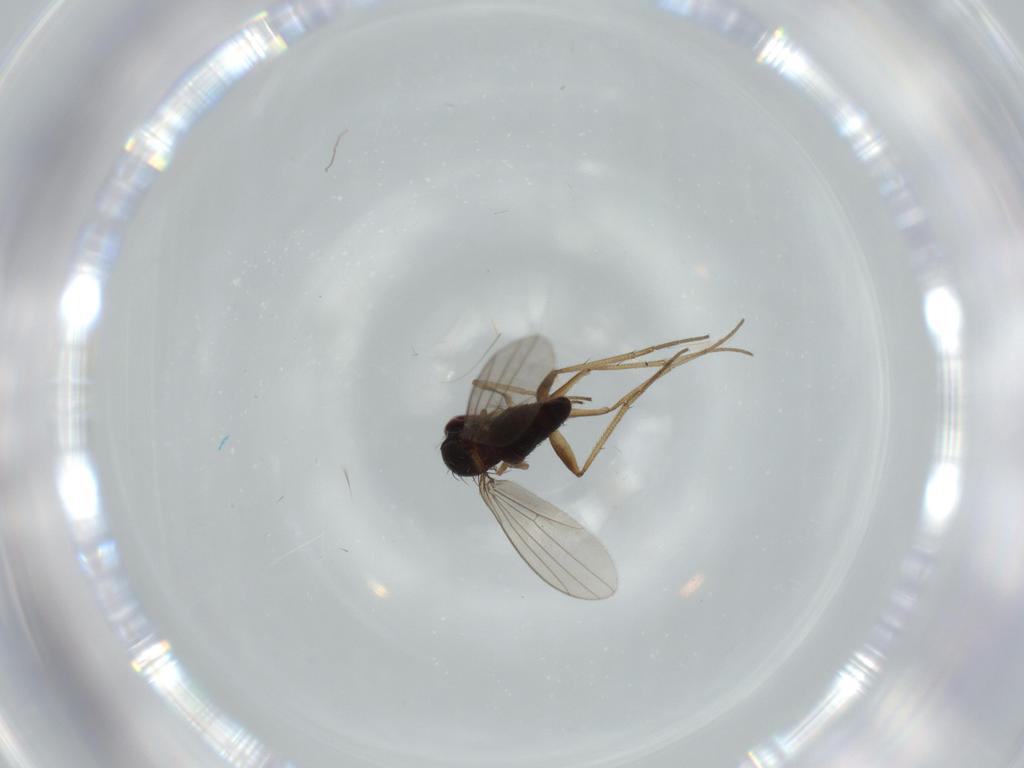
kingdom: Animalia
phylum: Arthropoda
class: Insecta
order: Diptera
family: Dolichopodidae
